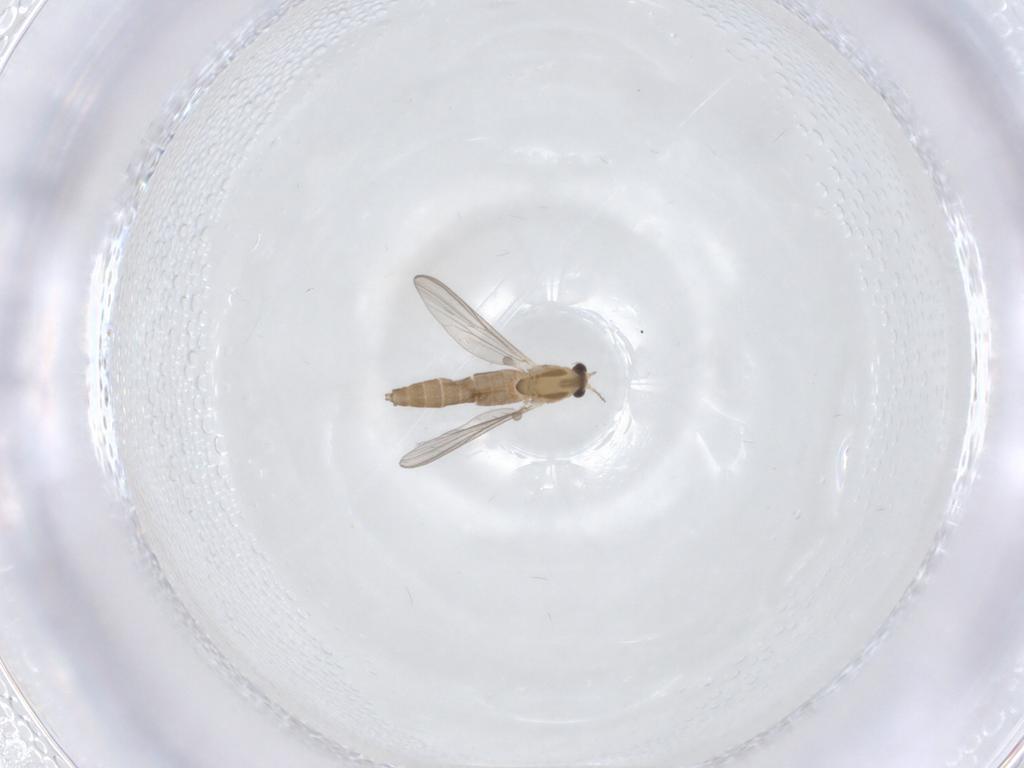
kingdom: Animalia
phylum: Arthropoda
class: Insecta
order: Diptera
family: Chironomidae
